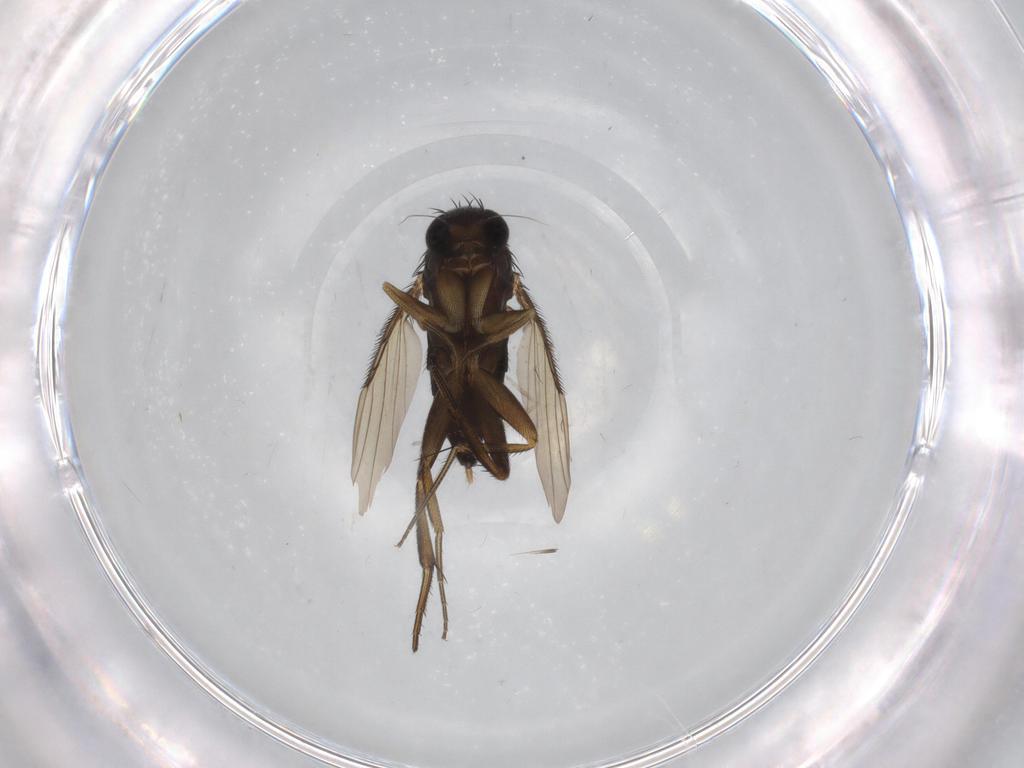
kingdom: Animalia
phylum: Arthropoda
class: Insecta
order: Diptera
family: Phoridae
